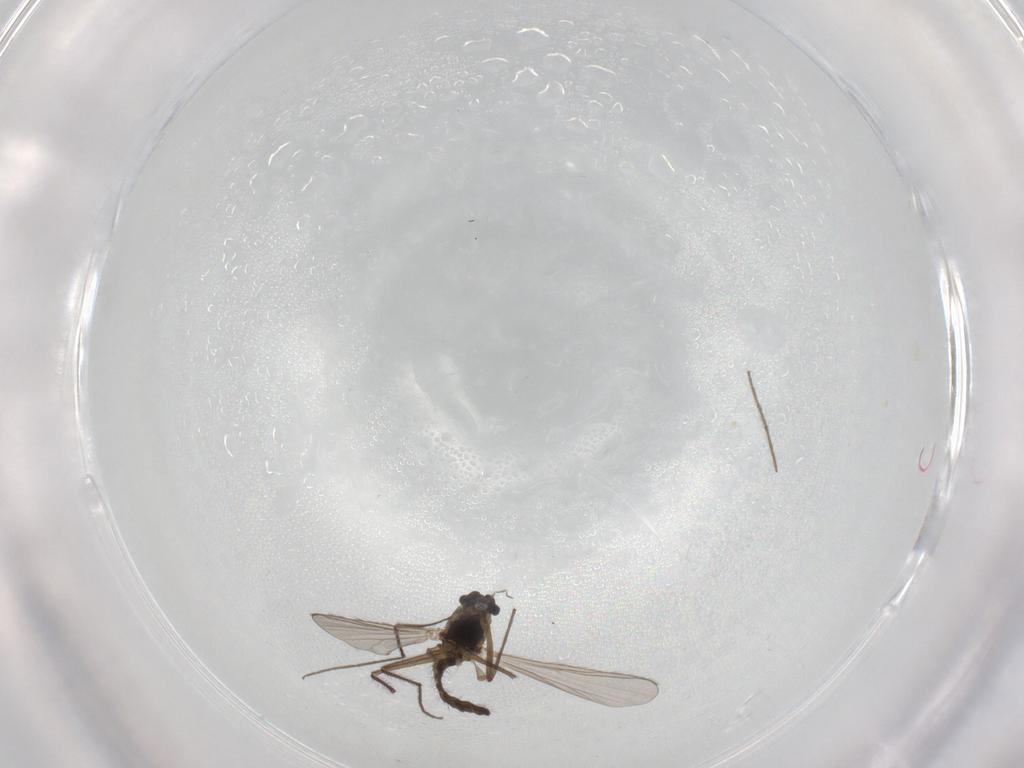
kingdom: Animalia
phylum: Arthropoda
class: Insecta
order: Diptera
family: Chironomidae
